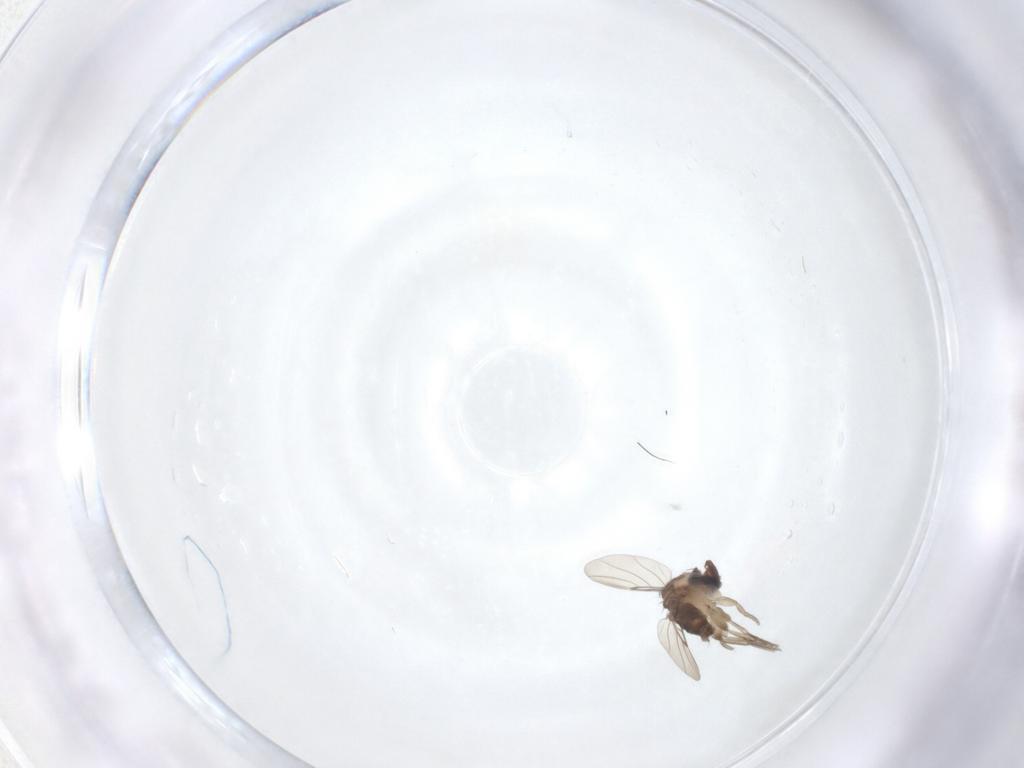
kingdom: Animalia
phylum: Arthropoda
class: Insecta
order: Diptera
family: Phoridae
